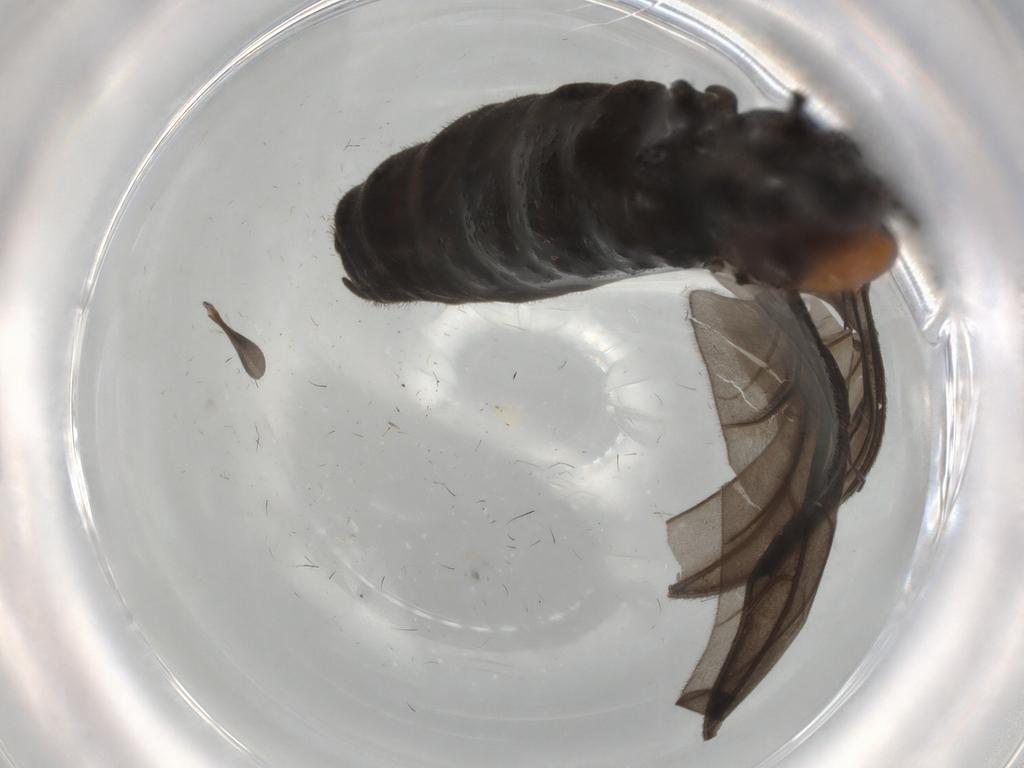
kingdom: Animalia
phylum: Arthropoda
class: Insecta
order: Diptera
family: Bibionidae
